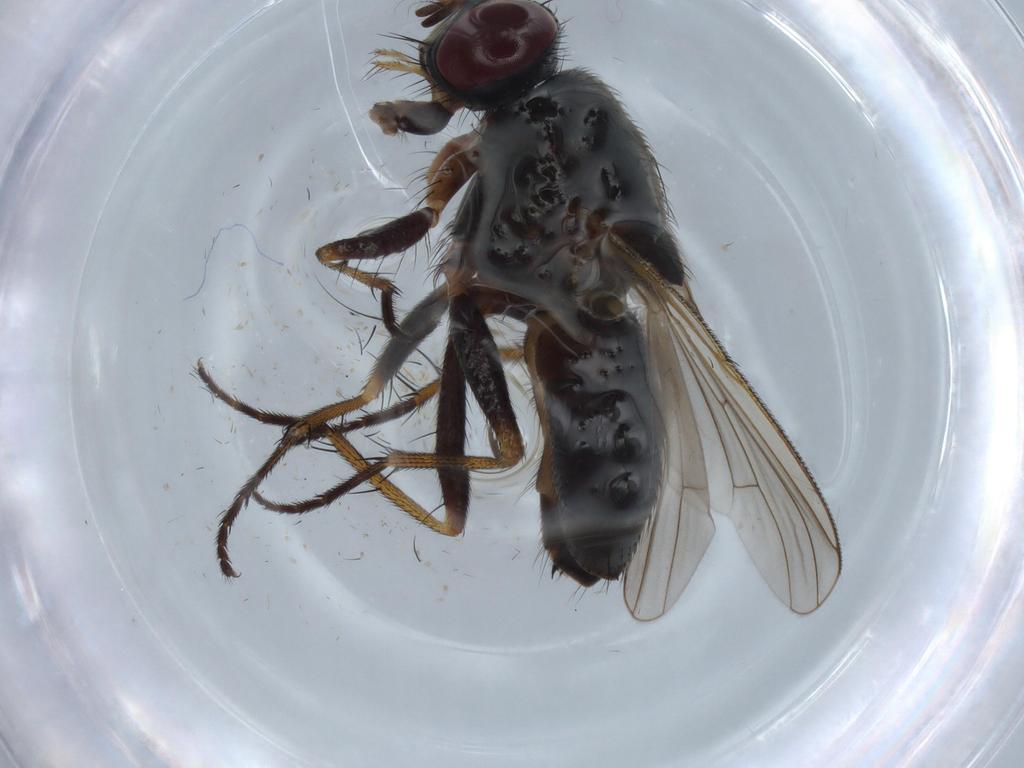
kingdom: Animalia
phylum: Arthropoda
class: Insecta
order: Diptera
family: Muscidae
